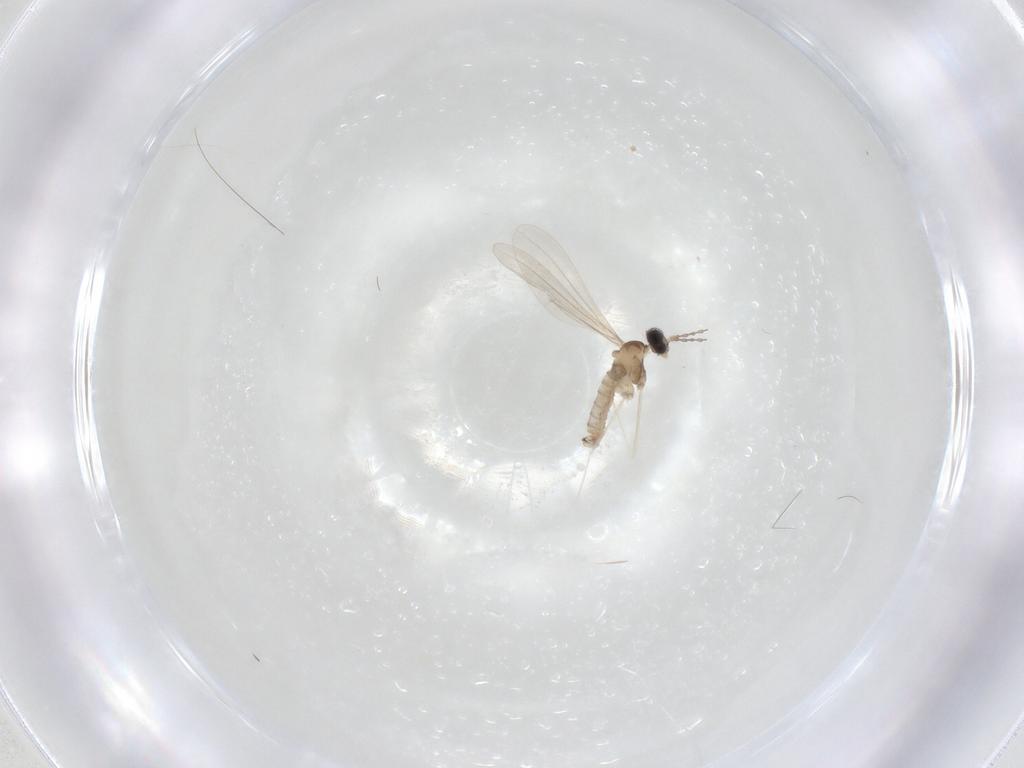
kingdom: Animalia
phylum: Arthropoda
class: Insecta
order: Diptera
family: Cecidomyiidae
